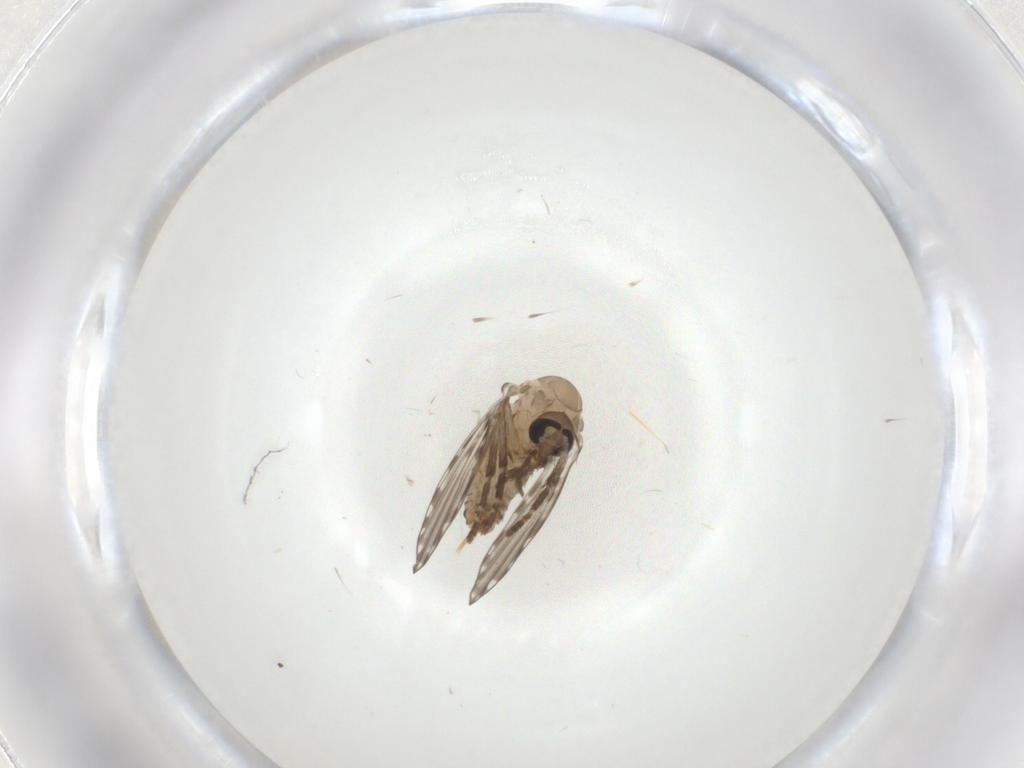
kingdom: Animalia
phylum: Arthropoda
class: Insecta
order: Diptera
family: Psychodidae
